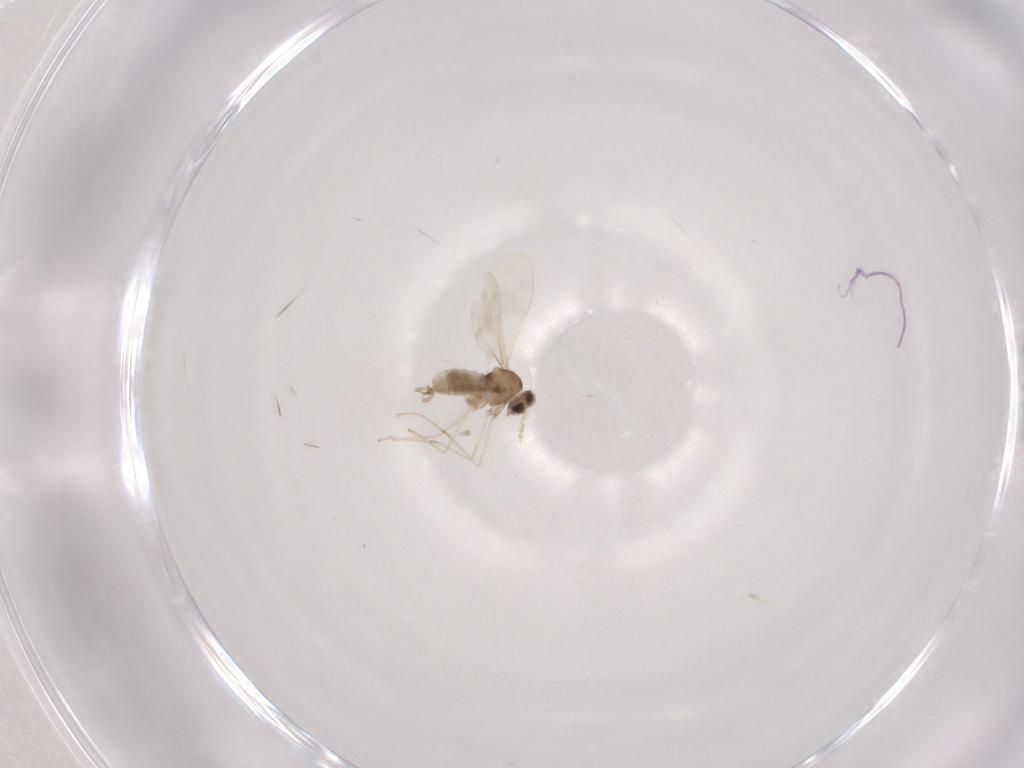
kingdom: Animalia
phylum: Arthropoda
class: Insecta
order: Diptera
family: Cecidomyiidae
